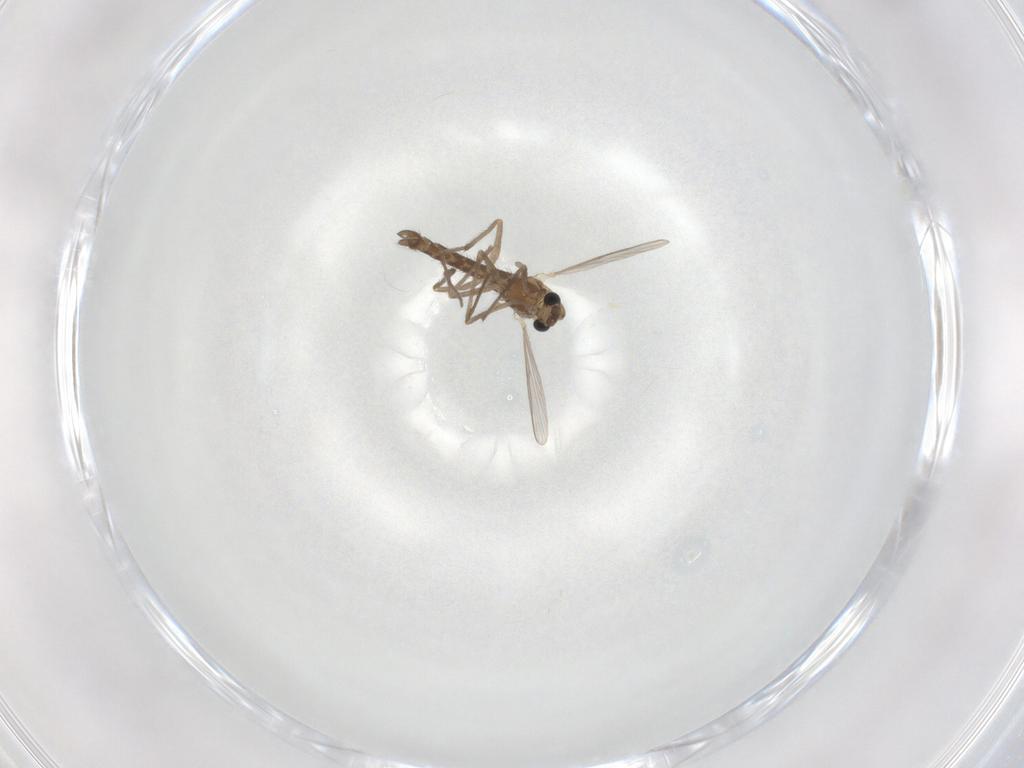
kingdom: Animalia
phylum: Arthropoda
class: Insecta
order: Diptera
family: Chironomidae
